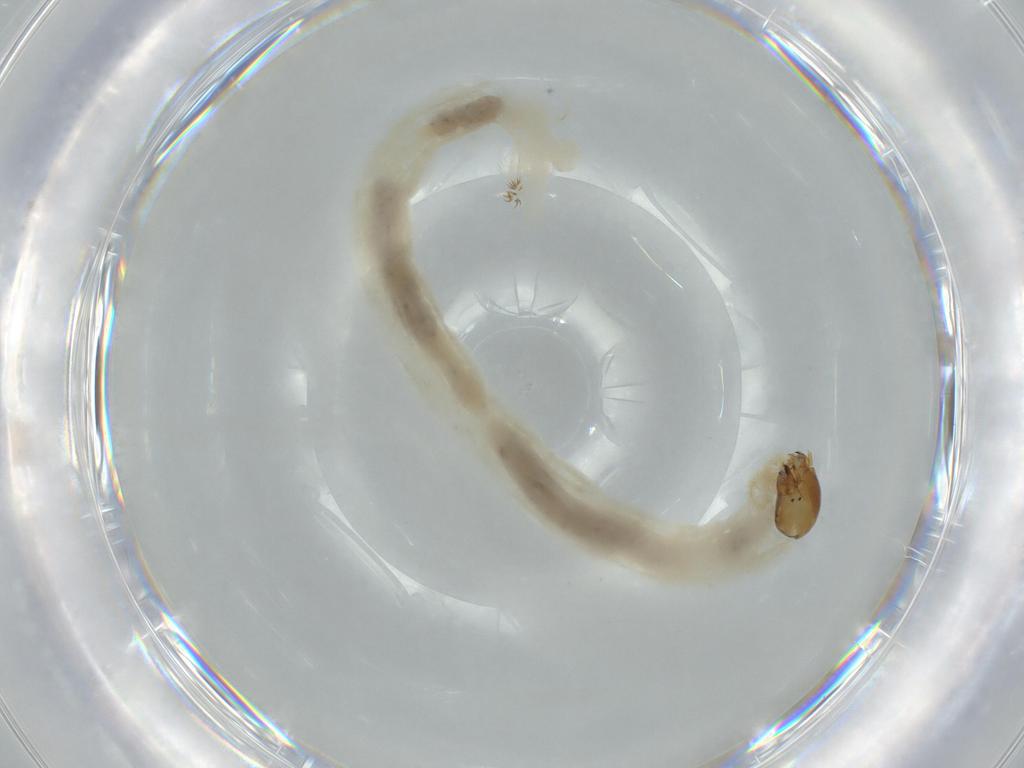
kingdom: Animalia
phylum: Arthropoda
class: Insecta
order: Diptera
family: Chironomidae
